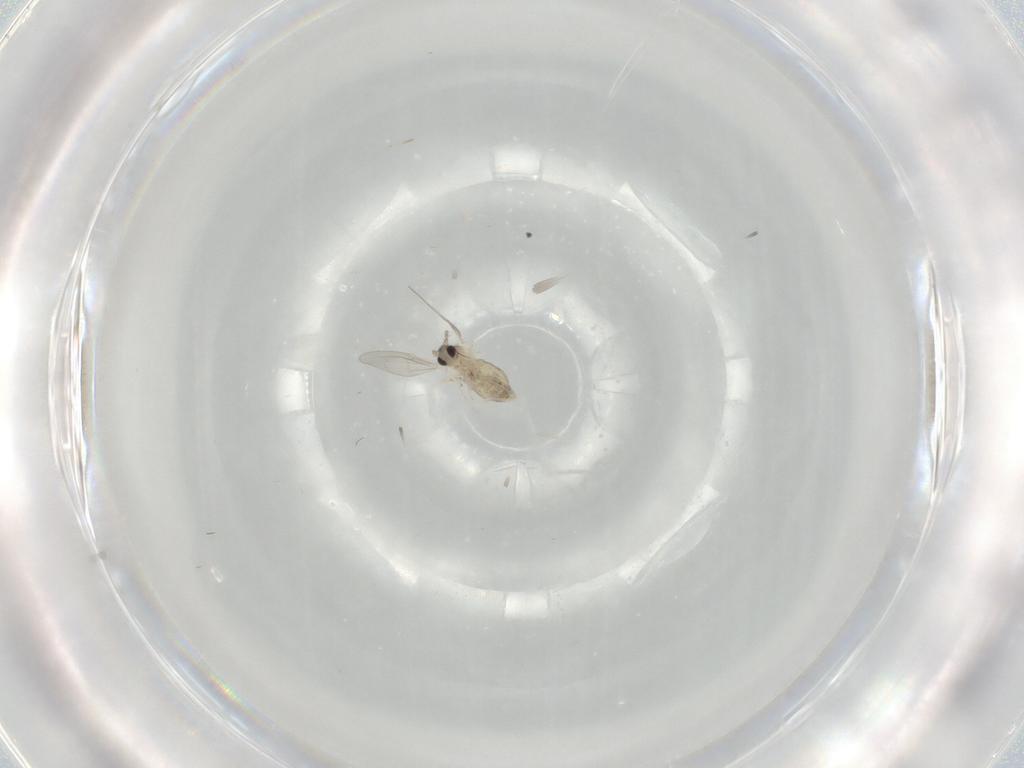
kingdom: Animalia
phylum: Arthropoda
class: Insecta
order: Diptera
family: Cecidomyiidae
